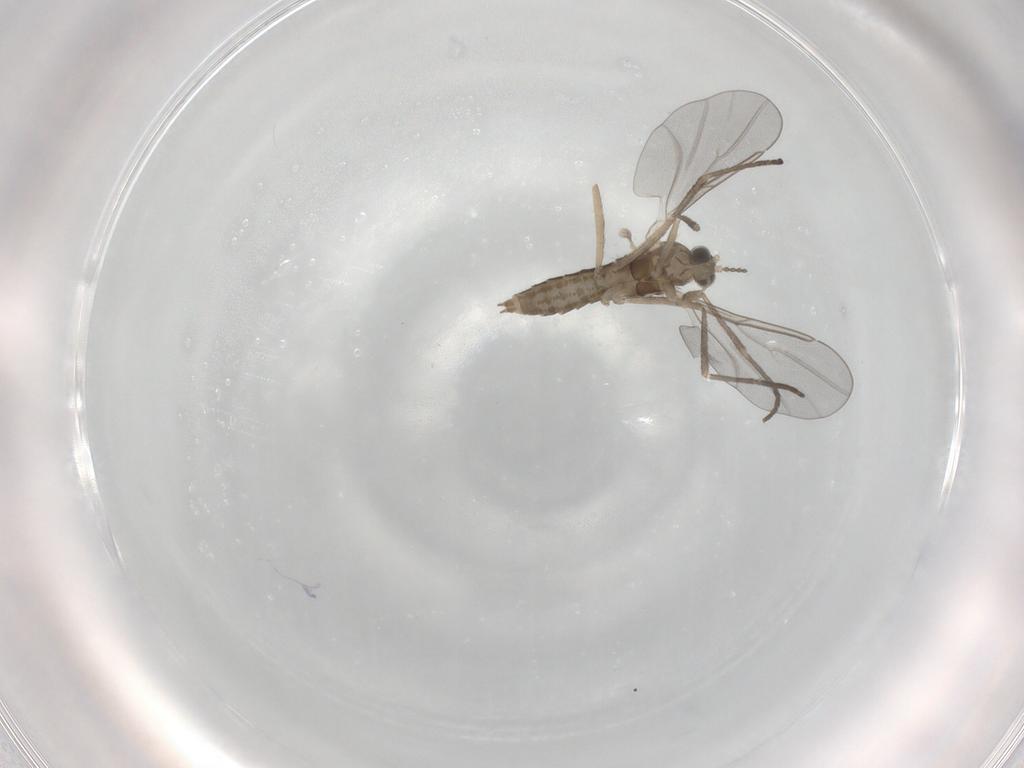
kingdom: Animalia
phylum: Arthropoda
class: Insecta
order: Diptera
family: Cecidomyiidae
